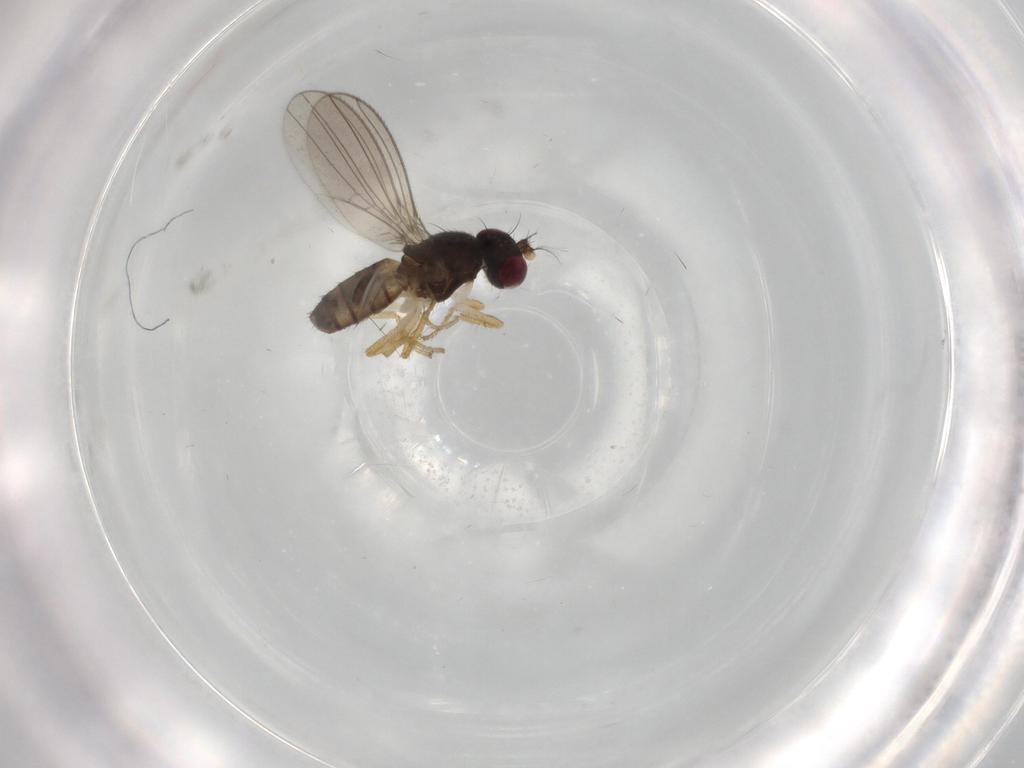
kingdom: Animalia
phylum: Arthropoda
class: Insecta
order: Diptera
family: Anthomyzidae
